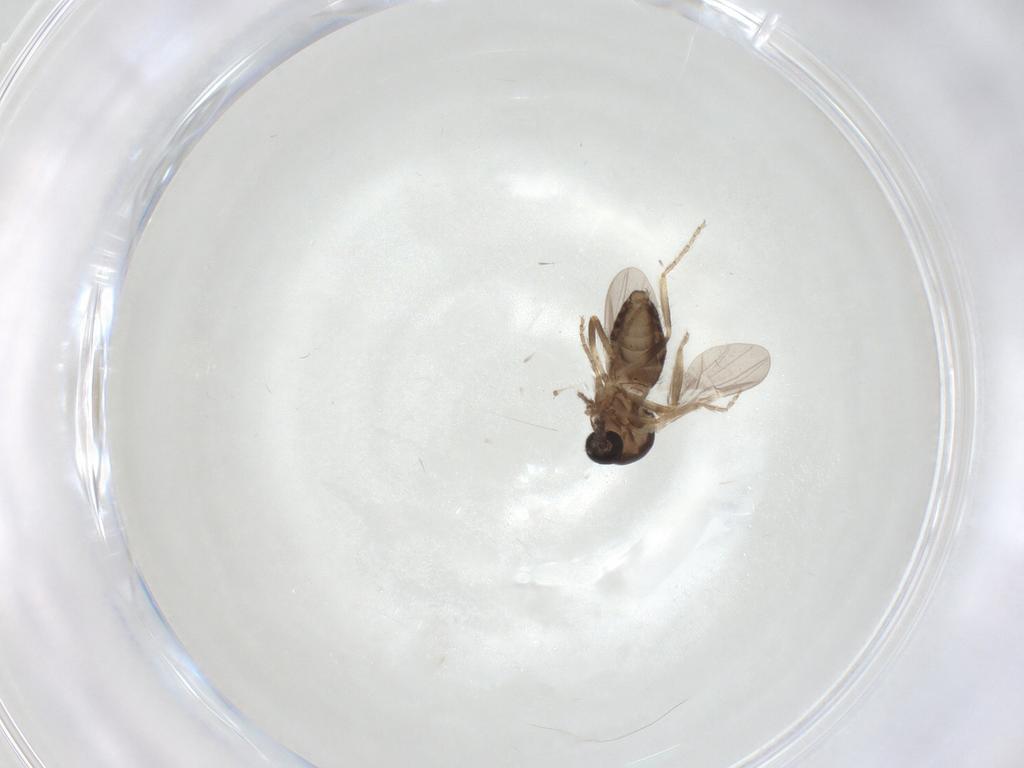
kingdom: Animalia
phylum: Arthropoda
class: Insecta
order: Diptera
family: Ceratopogonidae
